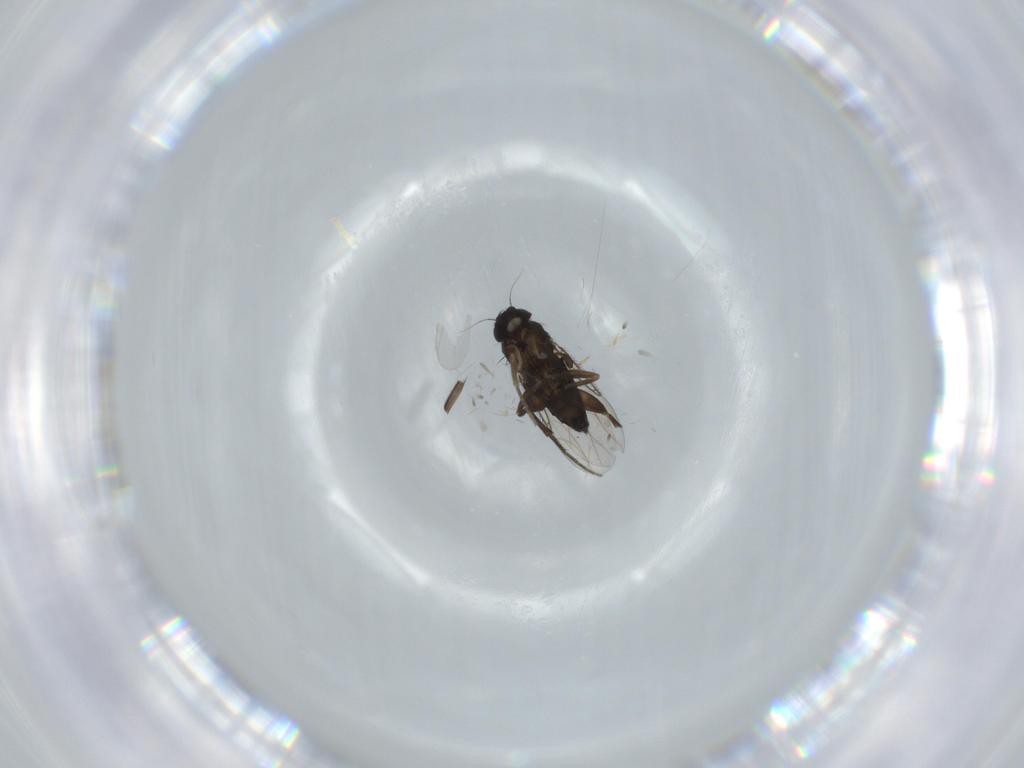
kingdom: Animalia
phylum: Arthropoda
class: Insecta
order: Diptera
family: Phoridae
